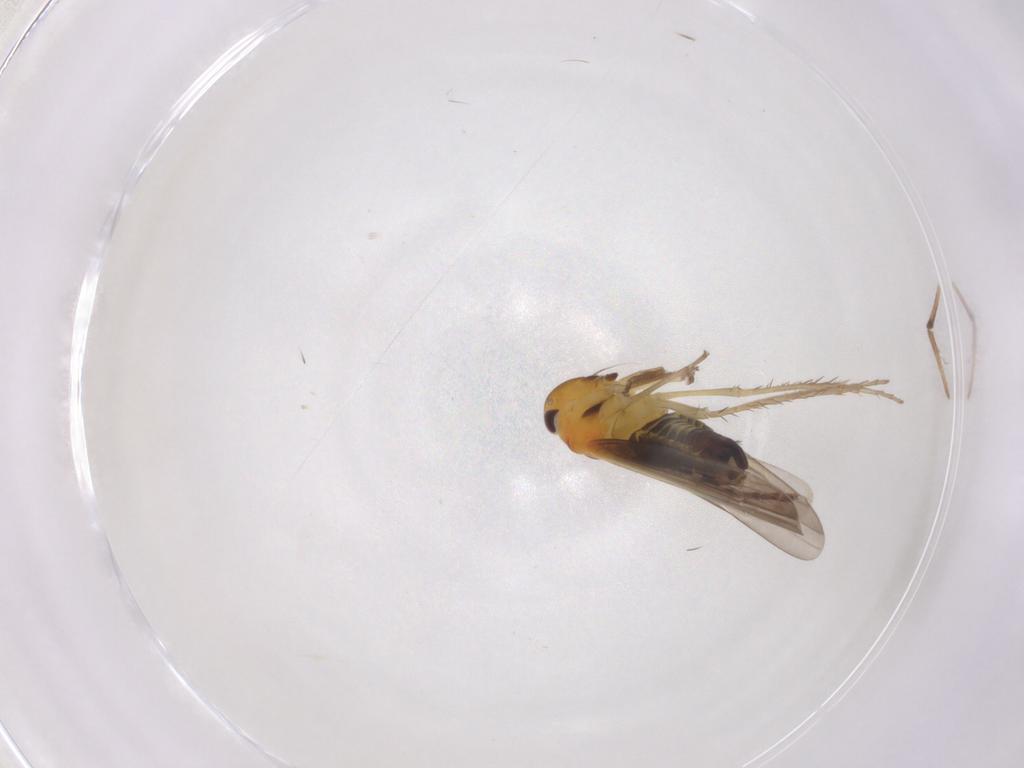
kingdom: Animalia
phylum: Arthropoda
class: Insecta
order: Hemiptera
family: Cicadellidae
